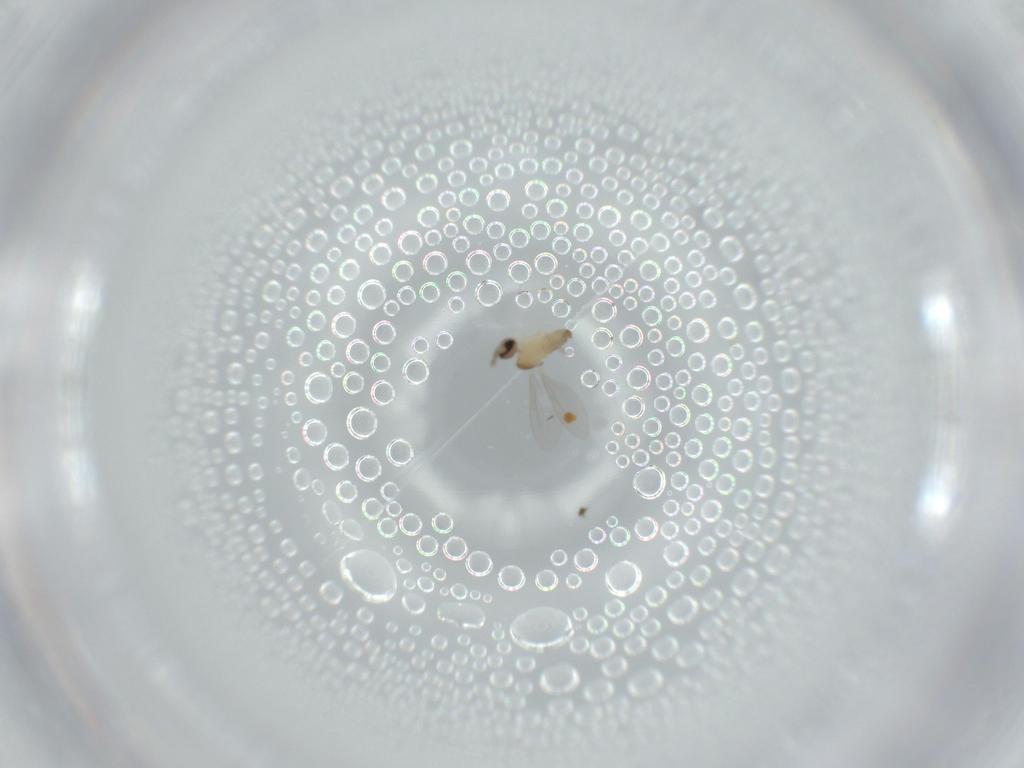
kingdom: Animalia
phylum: Arthropoda
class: Insecta
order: Diptera
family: Cecidomyiidae
